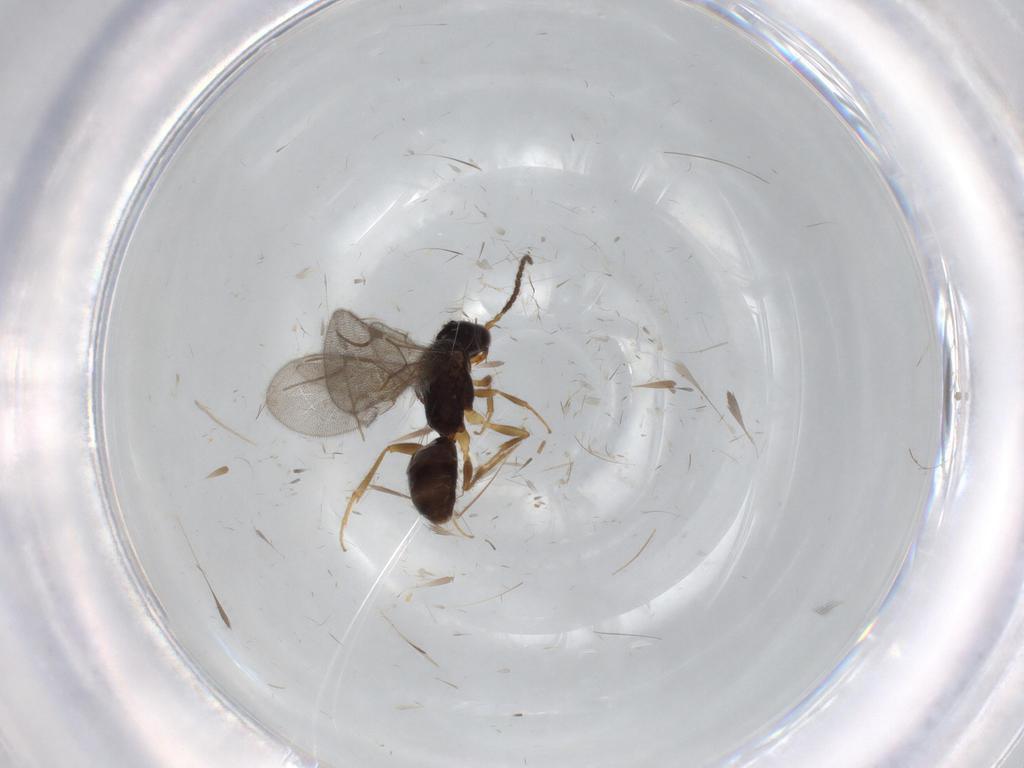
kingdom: Animalia
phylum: Arthropoda
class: Insecta
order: Hymenoptera
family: Bethylidae
